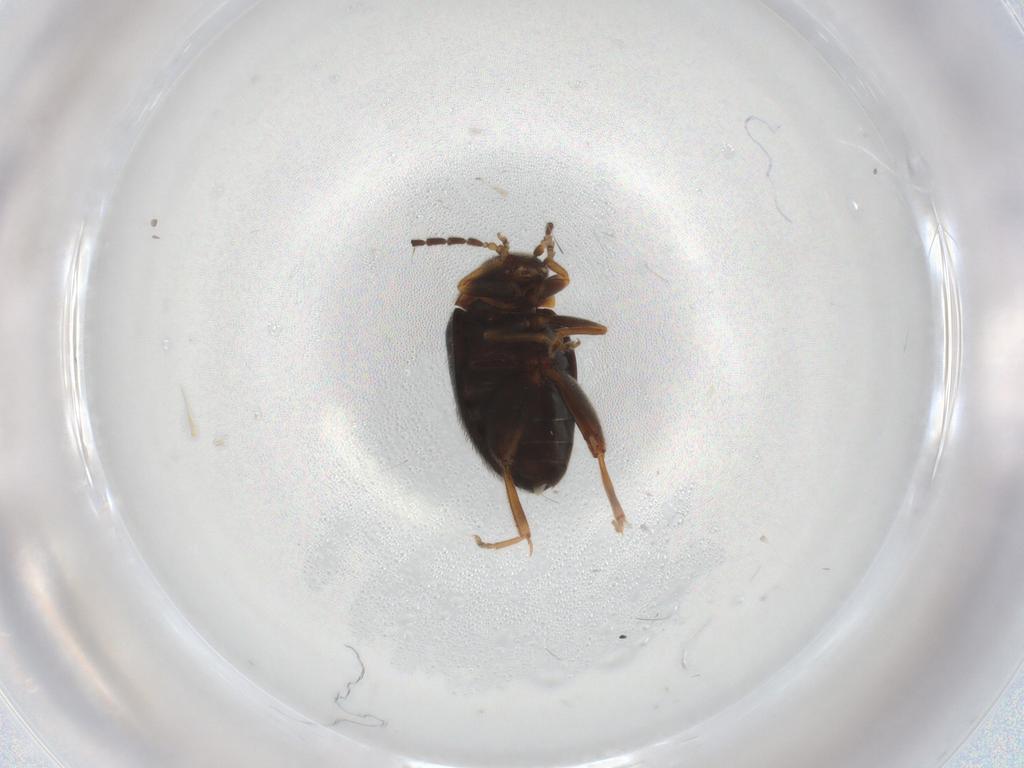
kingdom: Animalia
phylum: Arthropoda
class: Insecta
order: Coleoptera
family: Scirtidae
